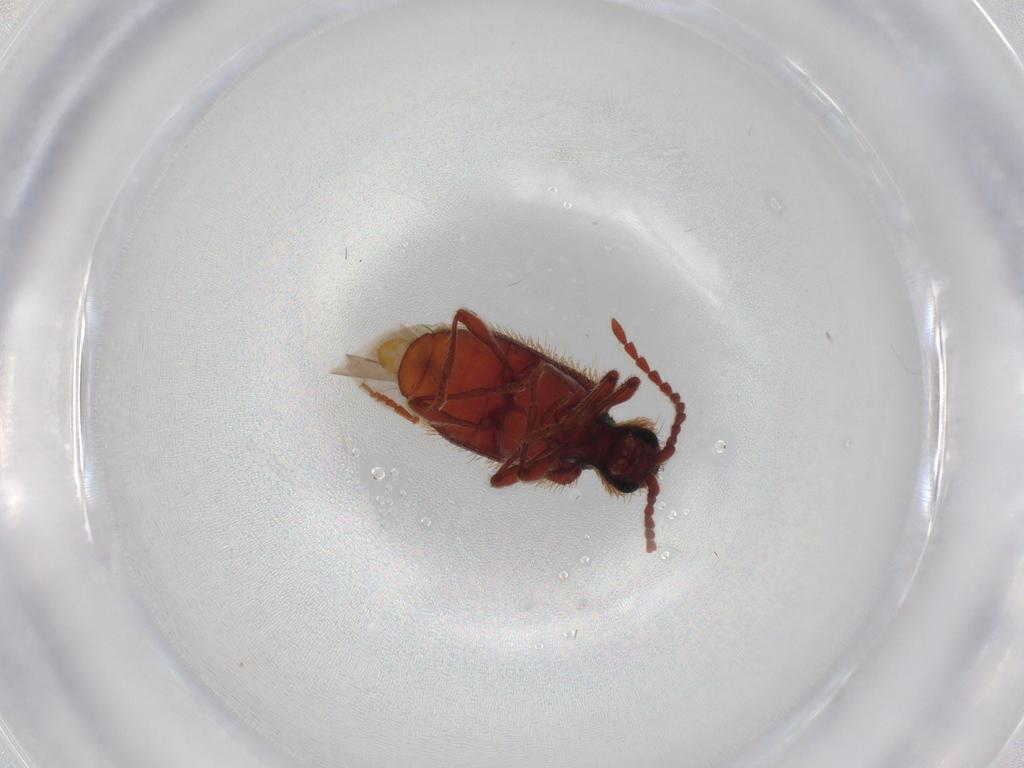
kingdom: Animalia
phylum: Arthropoda
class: Insecta
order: Coleoptera
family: Ptinidae
